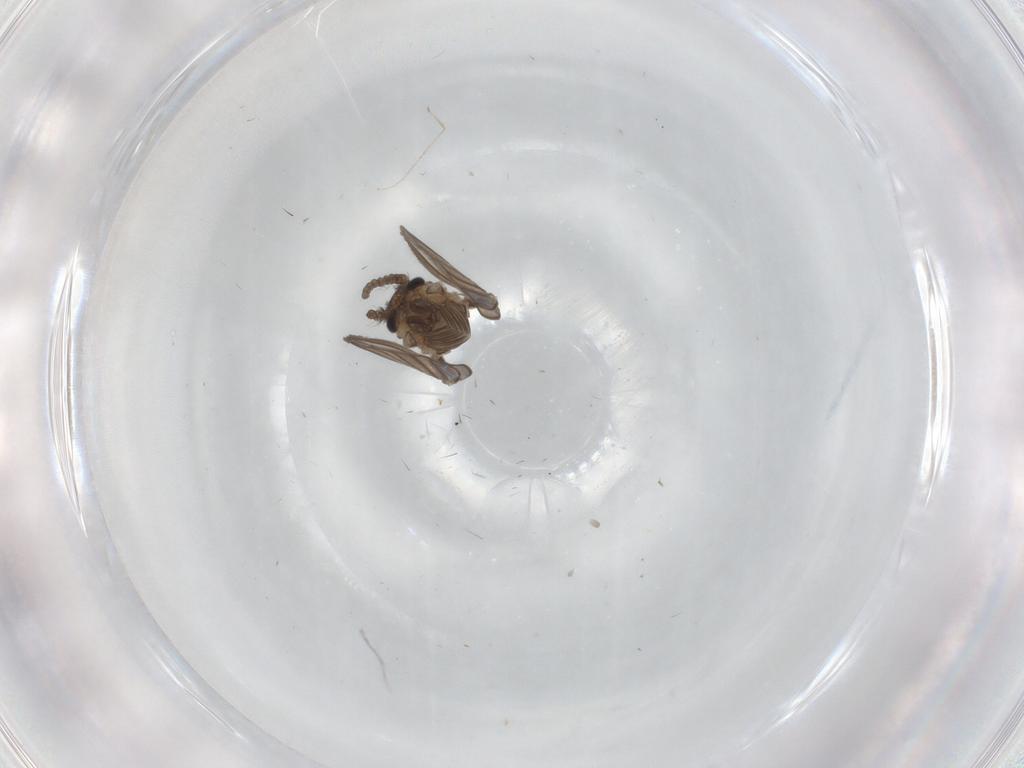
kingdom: Animalia
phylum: Arthropoda
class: Insecta
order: Diptera
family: Psychodidae
